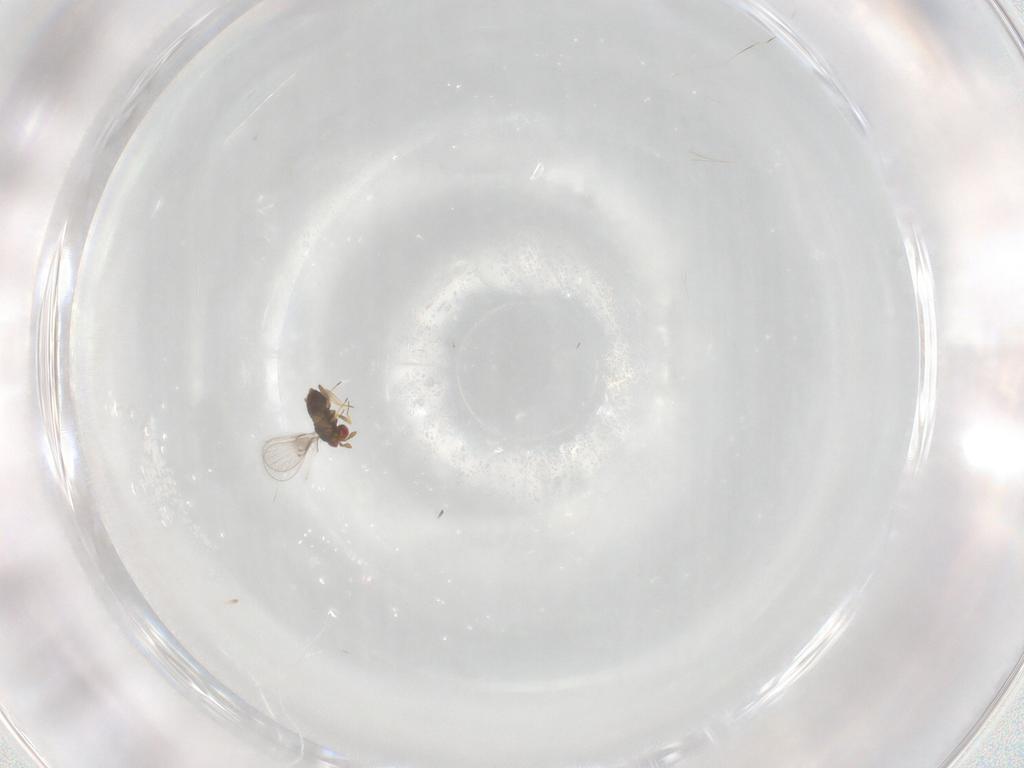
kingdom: Animalia
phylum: Arthropoda
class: Insecta
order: Hymenoptera
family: Trichogrammatidae
